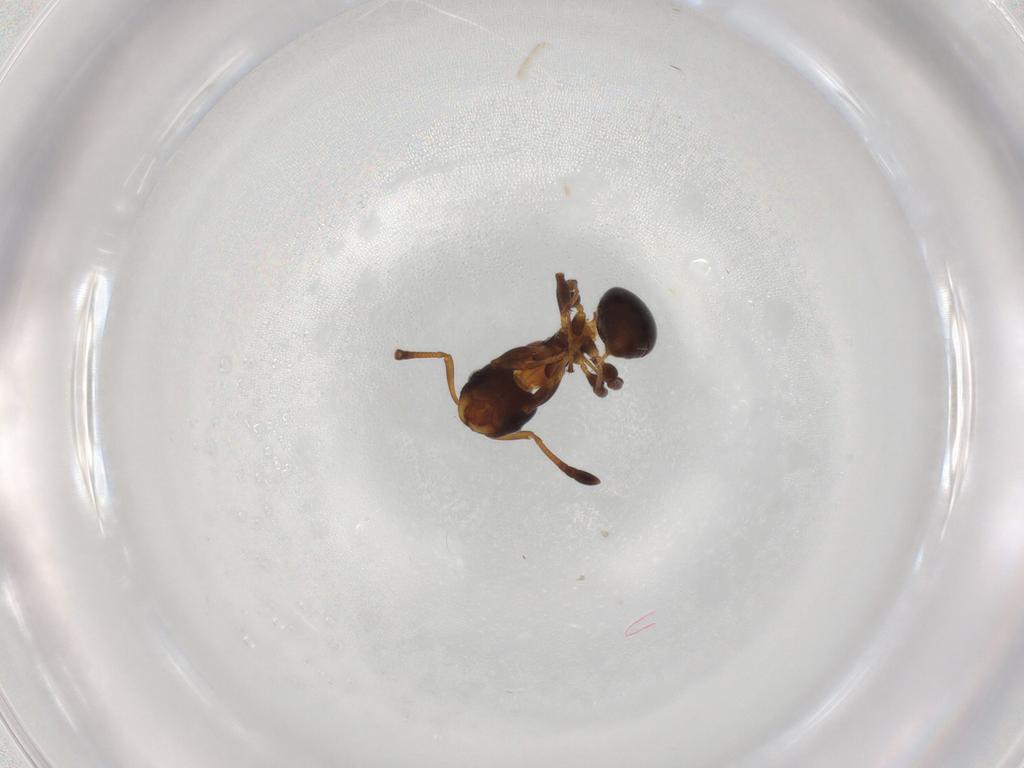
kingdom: Animalia
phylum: Arthropoda
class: Insecta
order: Hymenoptera
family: Formicidae
